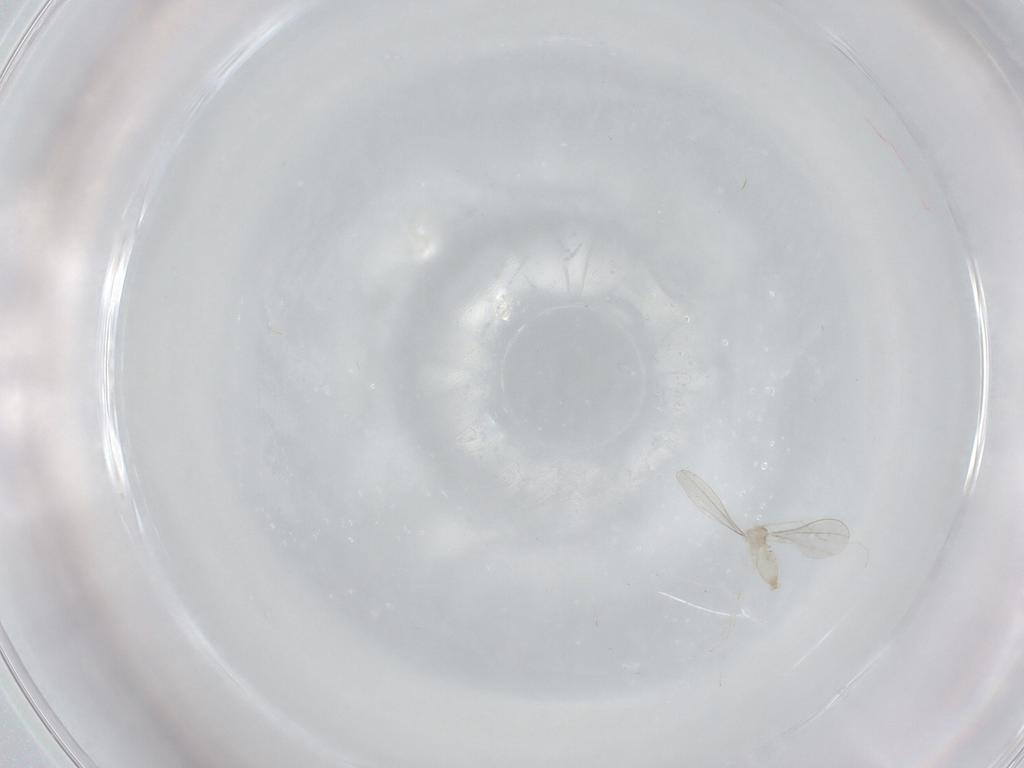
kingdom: Animalia
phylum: Arthropoda
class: Insecta
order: Diptera
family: Cecidomyiidae
